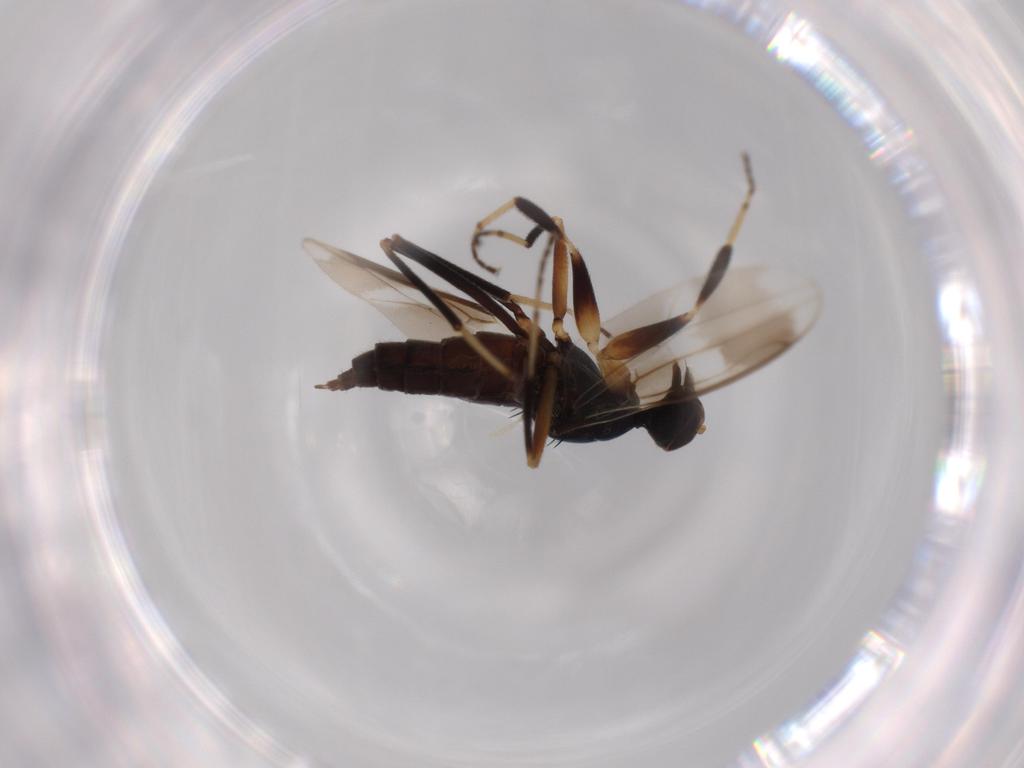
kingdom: Animalia
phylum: Arthropoda
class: Insecta
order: Diptera
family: Hybotidae
